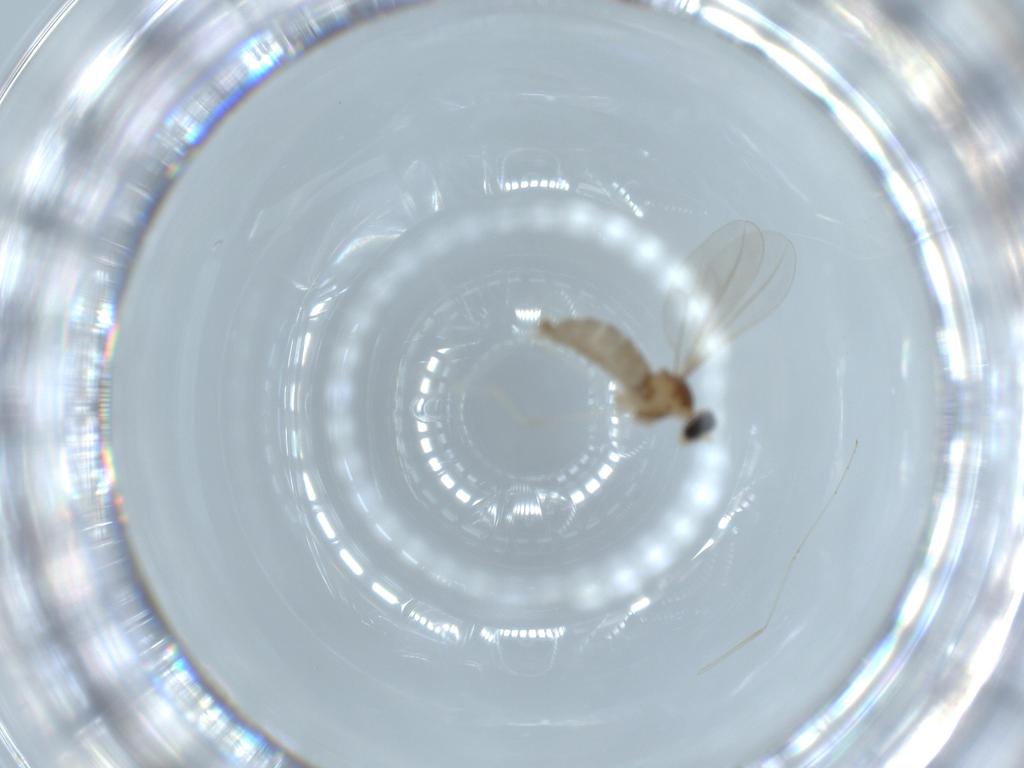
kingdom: Animalia
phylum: Arthropoda
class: Insecta
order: Diptera
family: Cecidomyiidae
